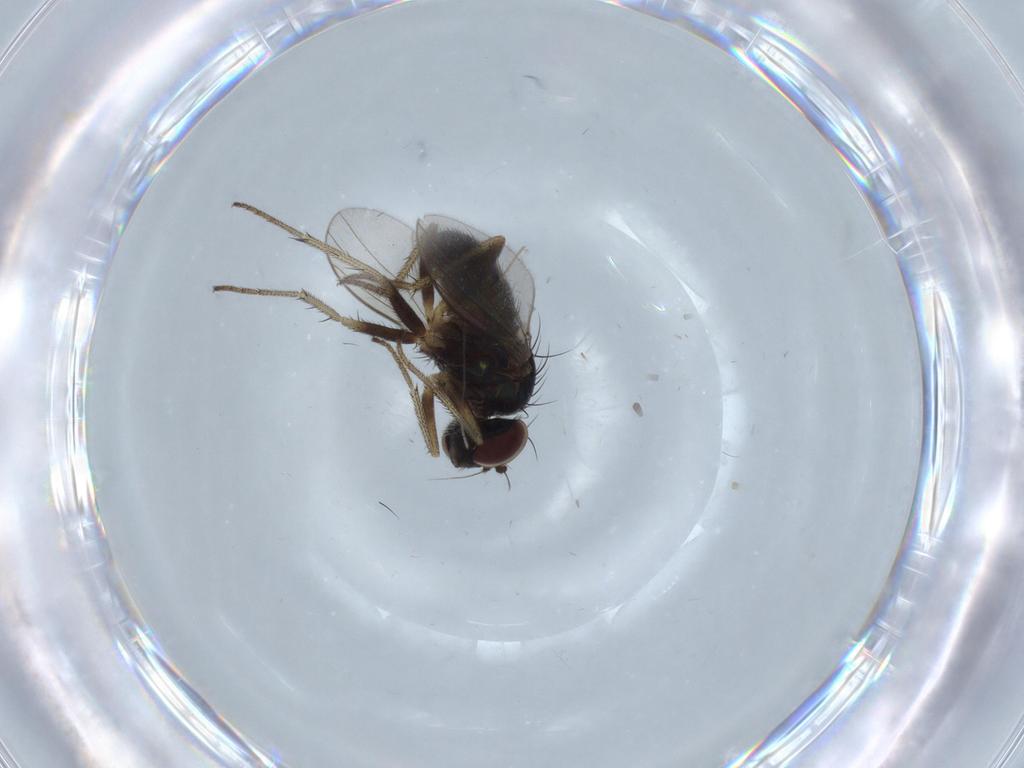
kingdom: Animalia
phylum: Arthropoda
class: Insecta
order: Diptera
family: Dolichopodidae
